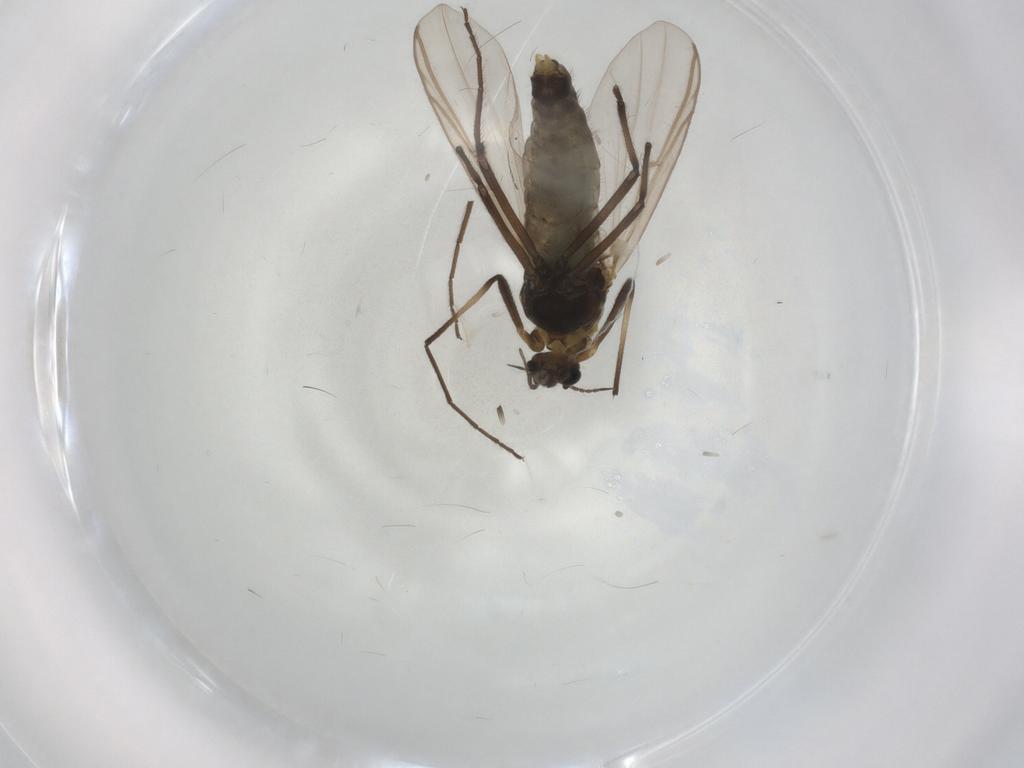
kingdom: Animalia
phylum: Arthropoda
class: Insecta
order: Diptera
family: Chironomidae
